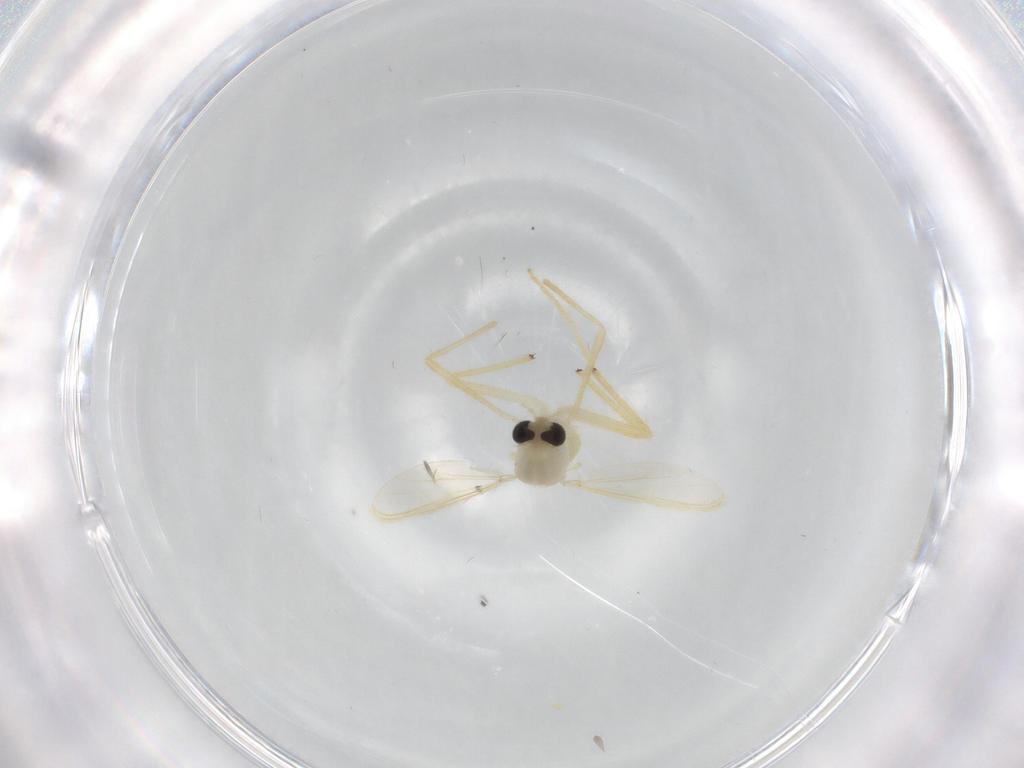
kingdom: Animalia
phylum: Arthropoda
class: Insecta
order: Diptera
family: Chironomidae
